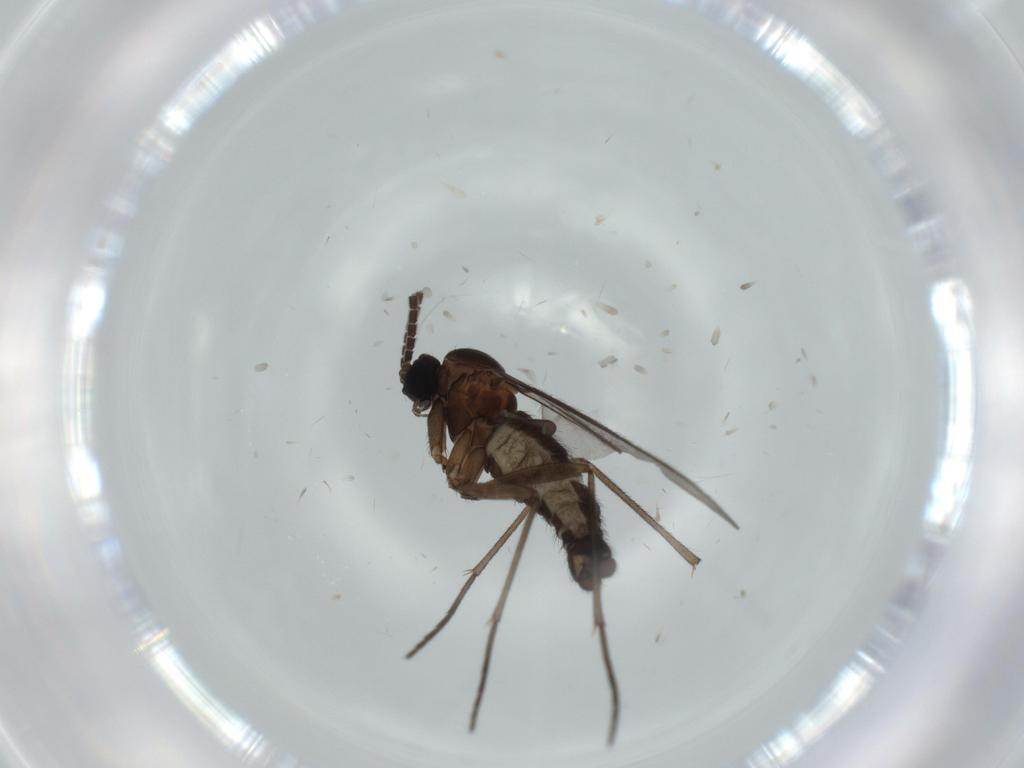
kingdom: Animalia
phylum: Arthropoda
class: Insecta
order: Diptera
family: Sciaridae
